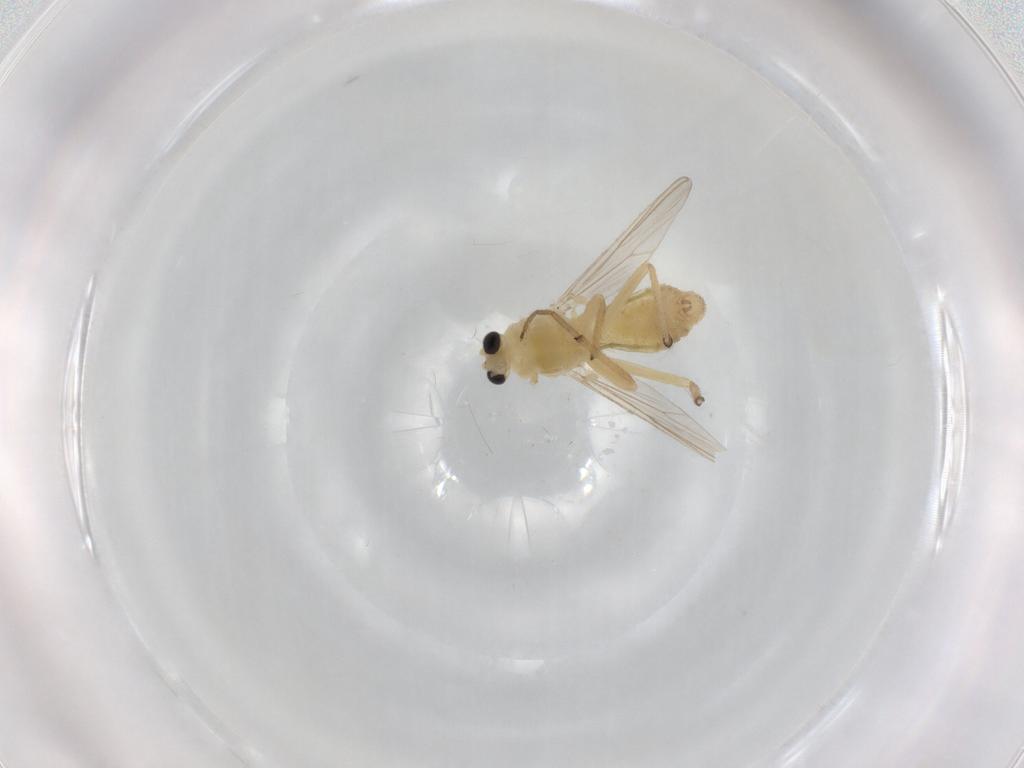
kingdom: Animalia
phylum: Arthropoda
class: Insecta
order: Diptera
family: Chironomidae
